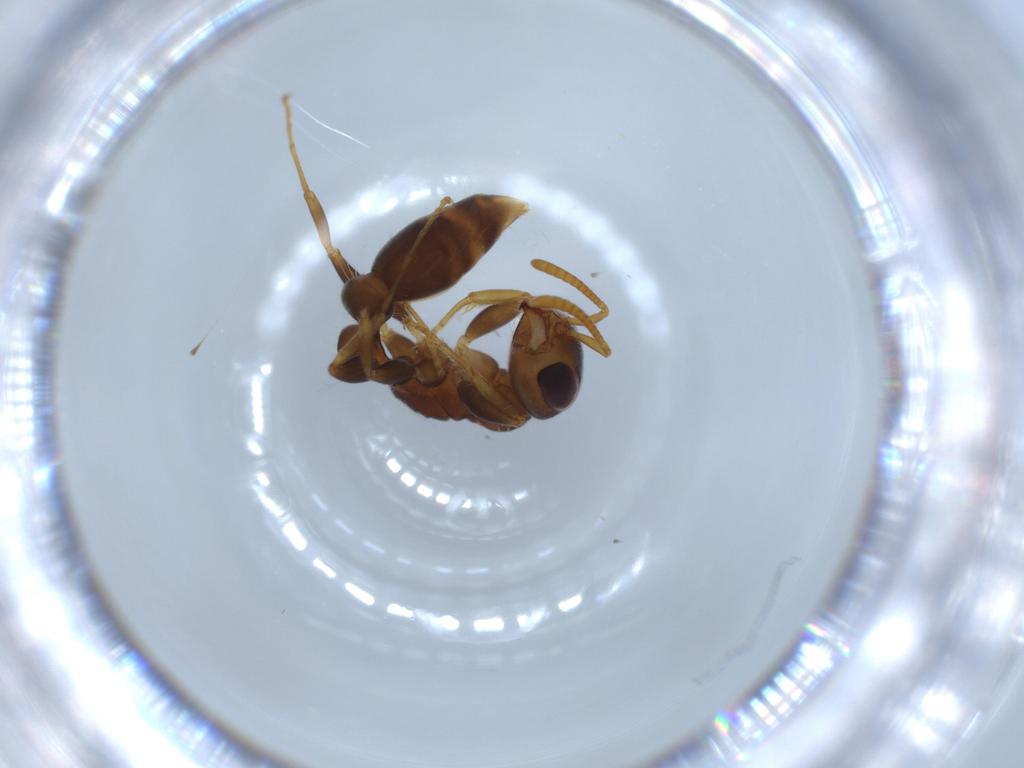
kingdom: Animalia
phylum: Arthropoda
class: Insecta
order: Hymenoptera
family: Formicidae
